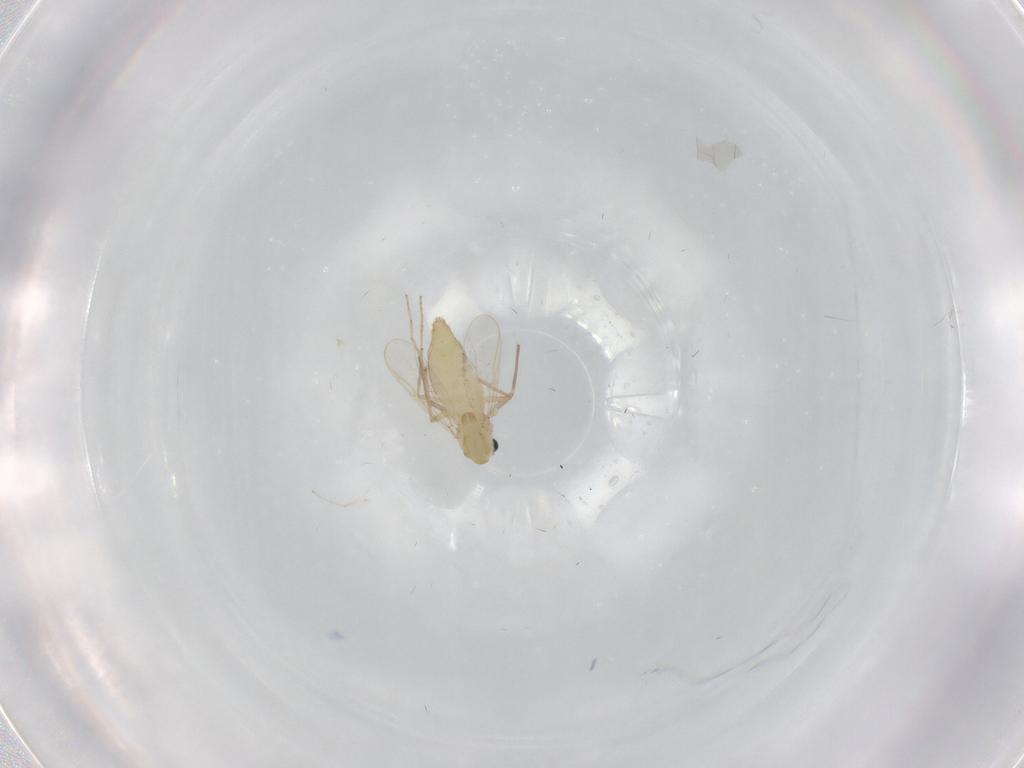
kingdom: Animalia
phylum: Arthropoda
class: Insecta
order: Diptera
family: Chironomidae
